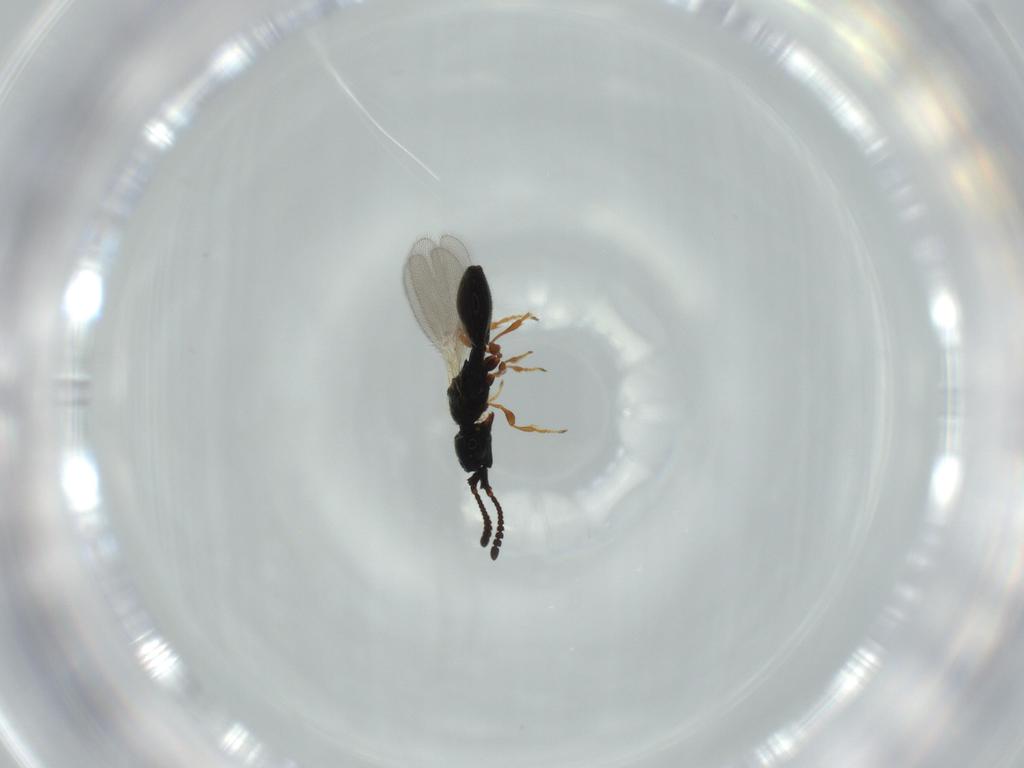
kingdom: Animalia
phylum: Arthropoda
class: Insecta
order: Hymenoptera
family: Diapriidae
